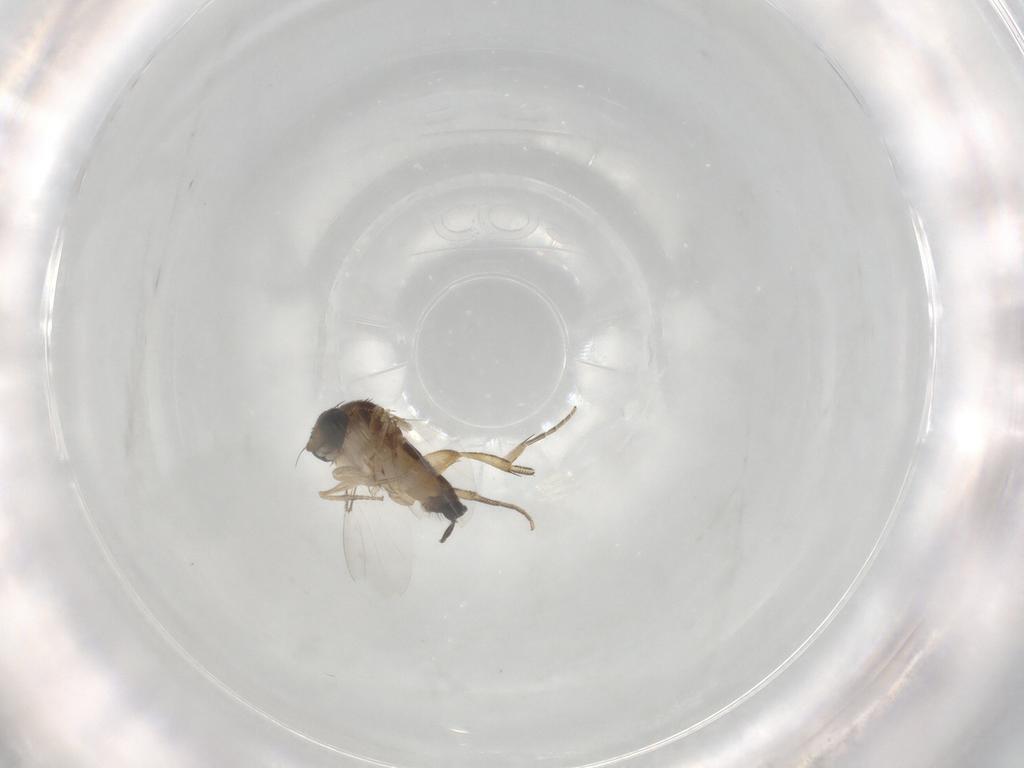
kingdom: Animalia
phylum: Arthropoda
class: Insecta
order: Diptera
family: Phoridae
